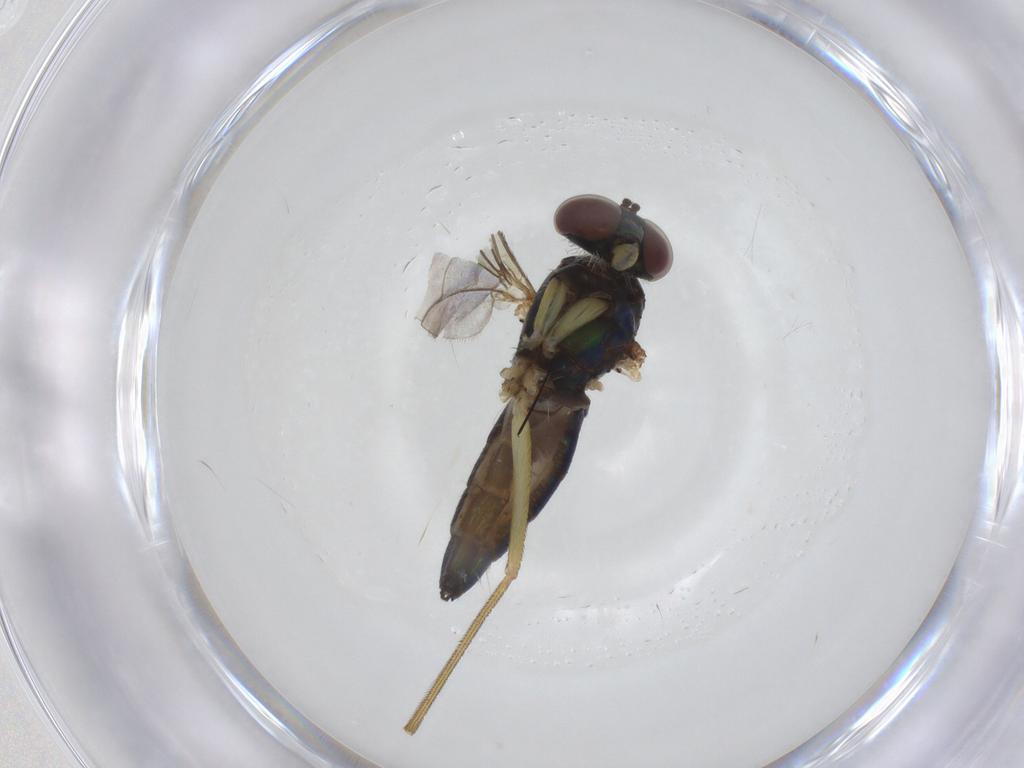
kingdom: Animalia
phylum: Arthropoda
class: Insecta
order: Diptera
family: Dolichopodidae
